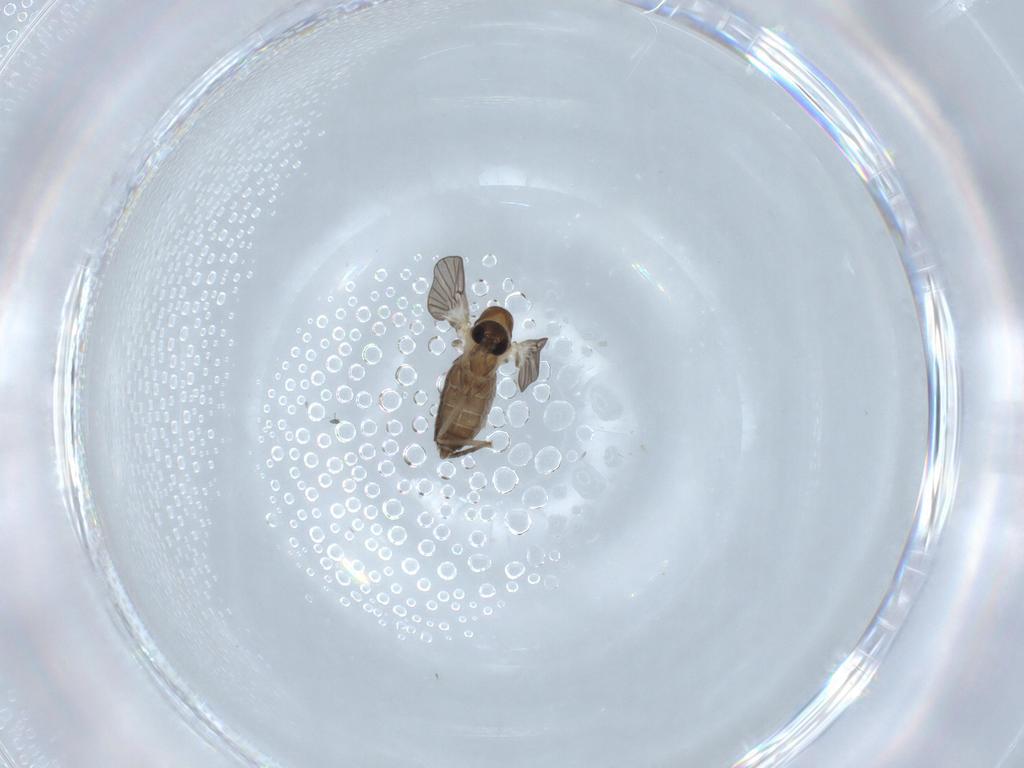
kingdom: Animalia
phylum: Arthropoda
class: Insecta
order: Diptera
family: Psychodidae
